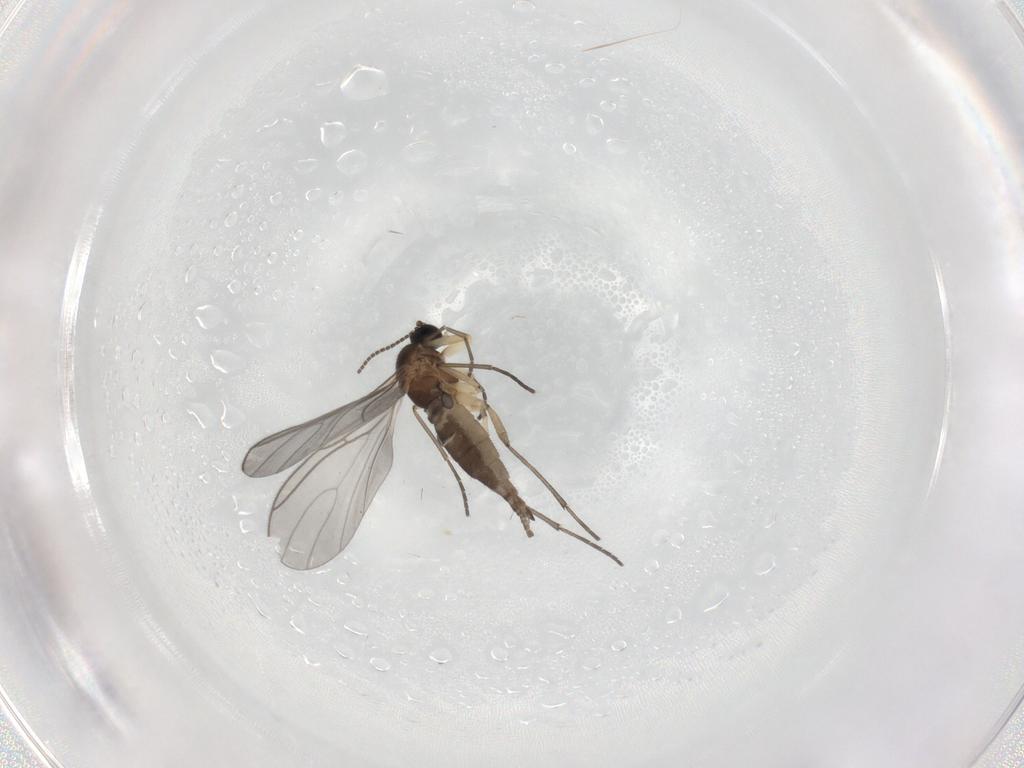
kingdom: Animalia
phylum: Arthropoda
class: Insecta
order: Diptera
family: Sciaridae
